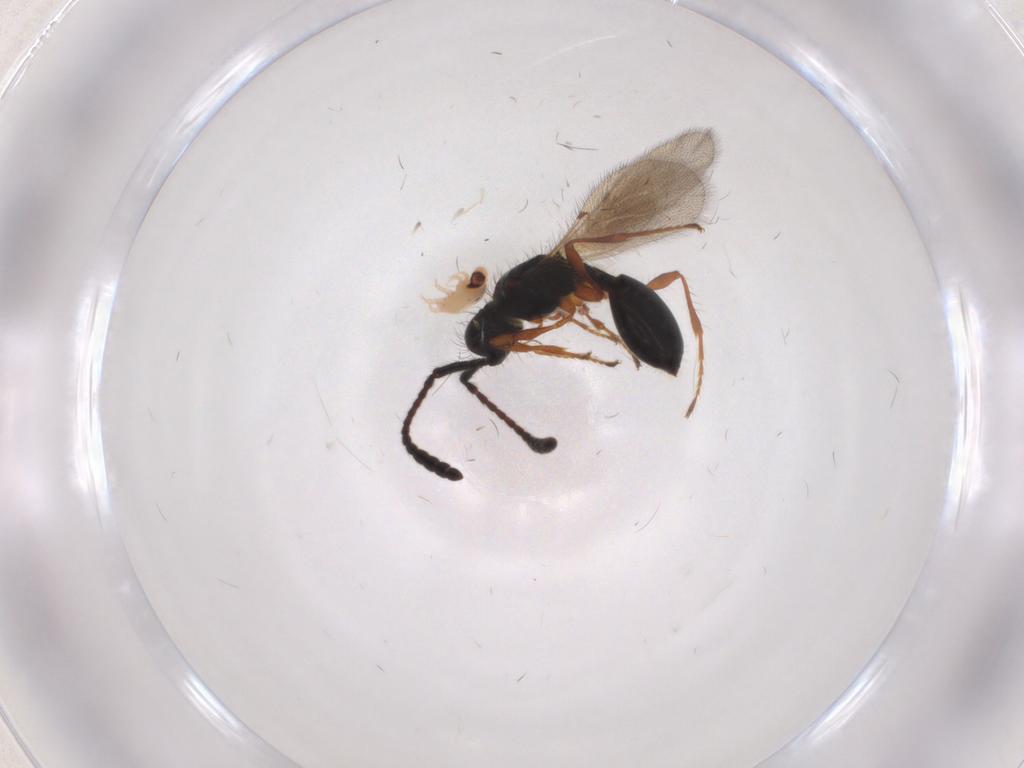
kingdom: Animalia
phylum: Arthropoda
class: Insecta
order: Hymenoptera
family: Diapriidae
